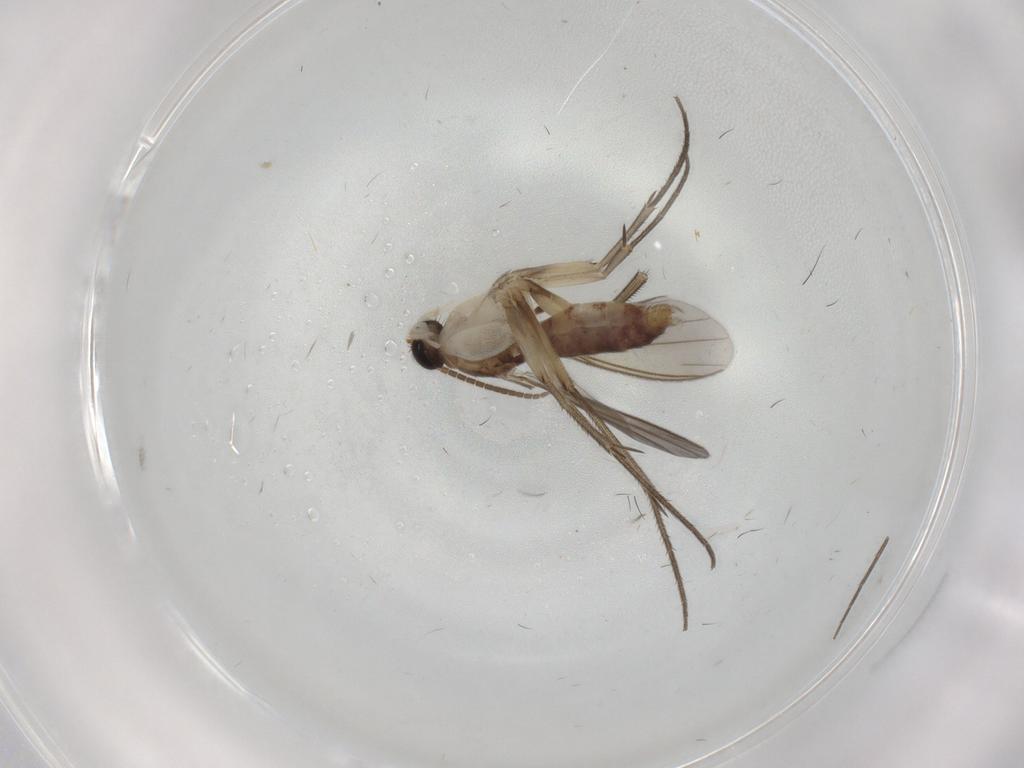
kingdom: Animalia
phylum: Arthropoda
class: Insecta
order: Diptera
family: Mycetophilidae
